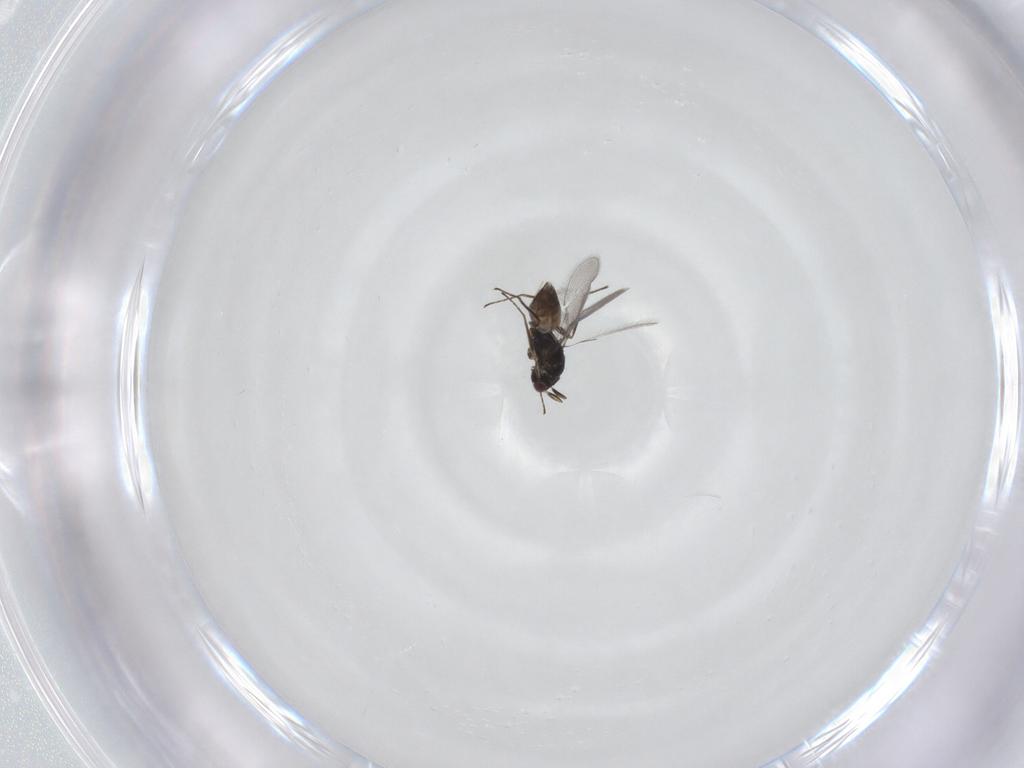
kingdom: Animalia
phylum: Arthropoda
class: Insecta
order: Hymenoptera
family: Mymaridae
